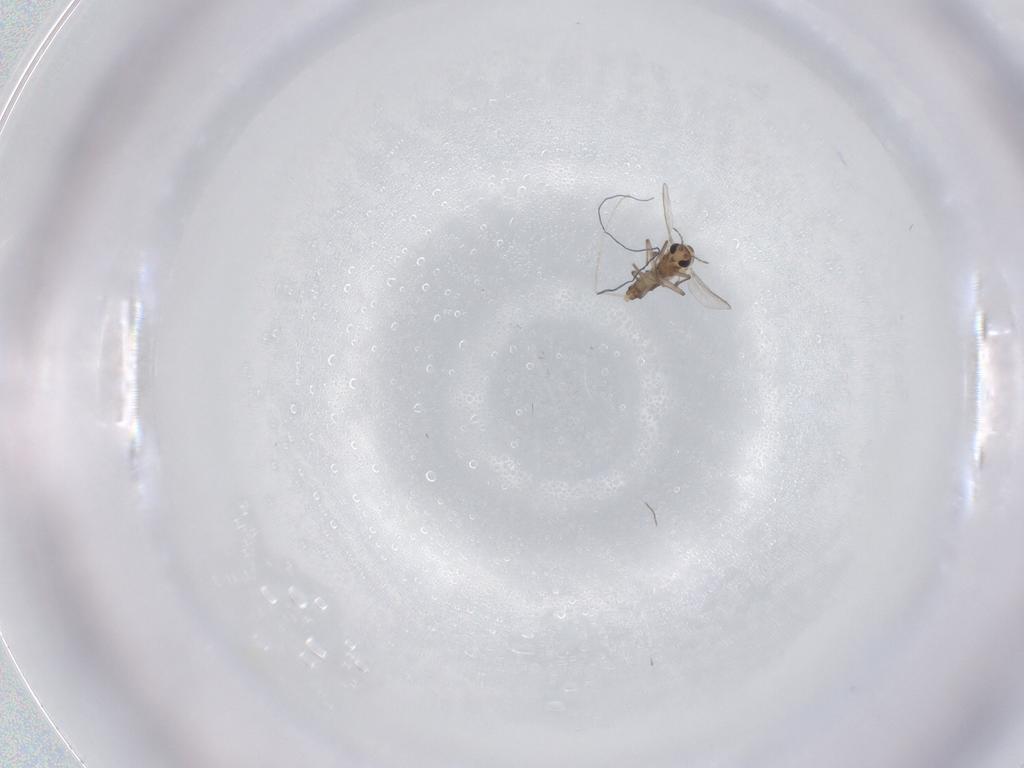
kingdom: Animalia
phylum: Arthropoda
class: Insecta
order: Diptera
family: Chironomidae
